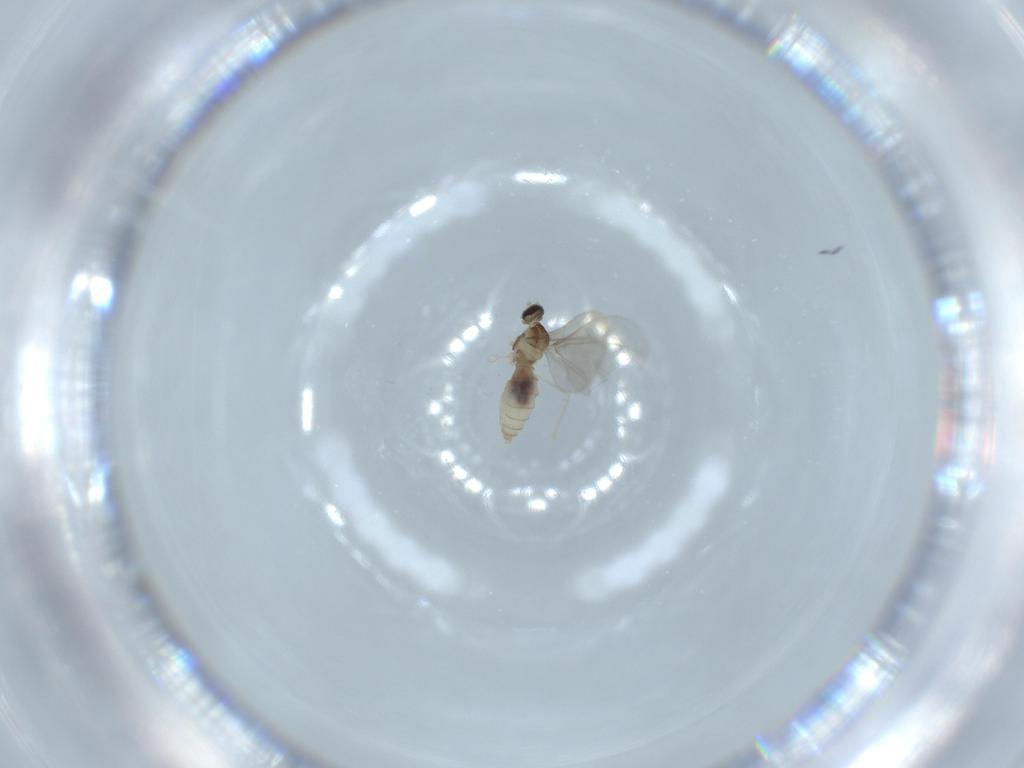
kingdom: Animalia
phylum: Arthropoda
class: Insecta
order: Diptera
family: Cecidomyiidae
